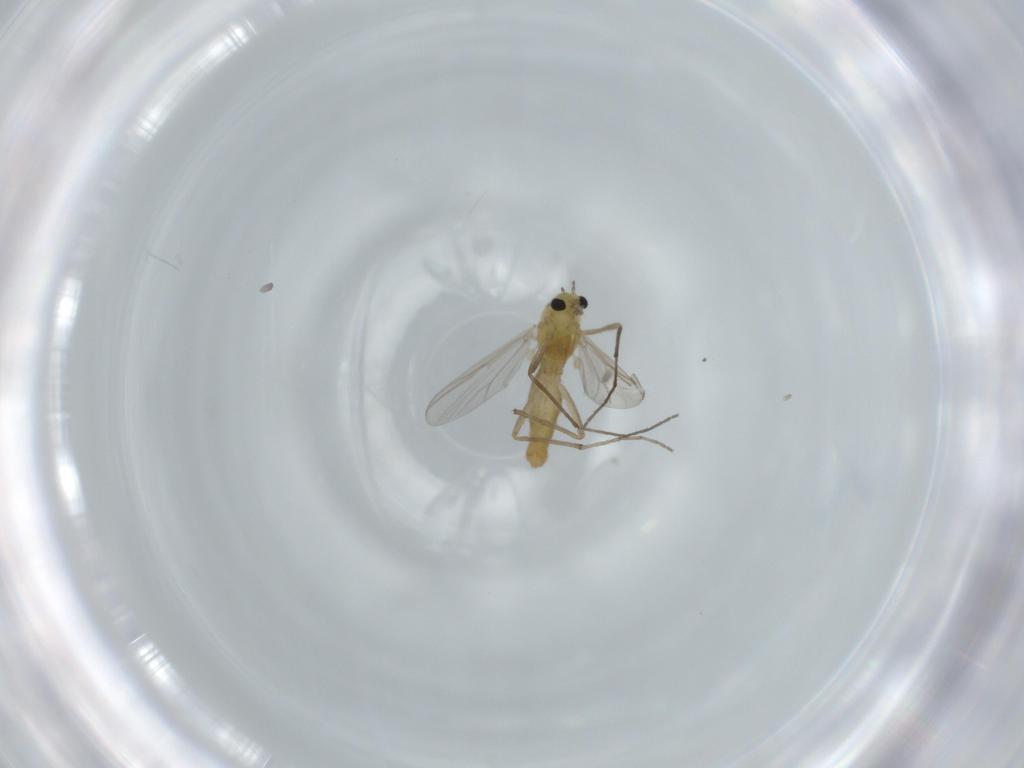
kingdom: Animalia
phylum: Arthropoda
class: Insecta
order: Diptera
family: Chironomidae
